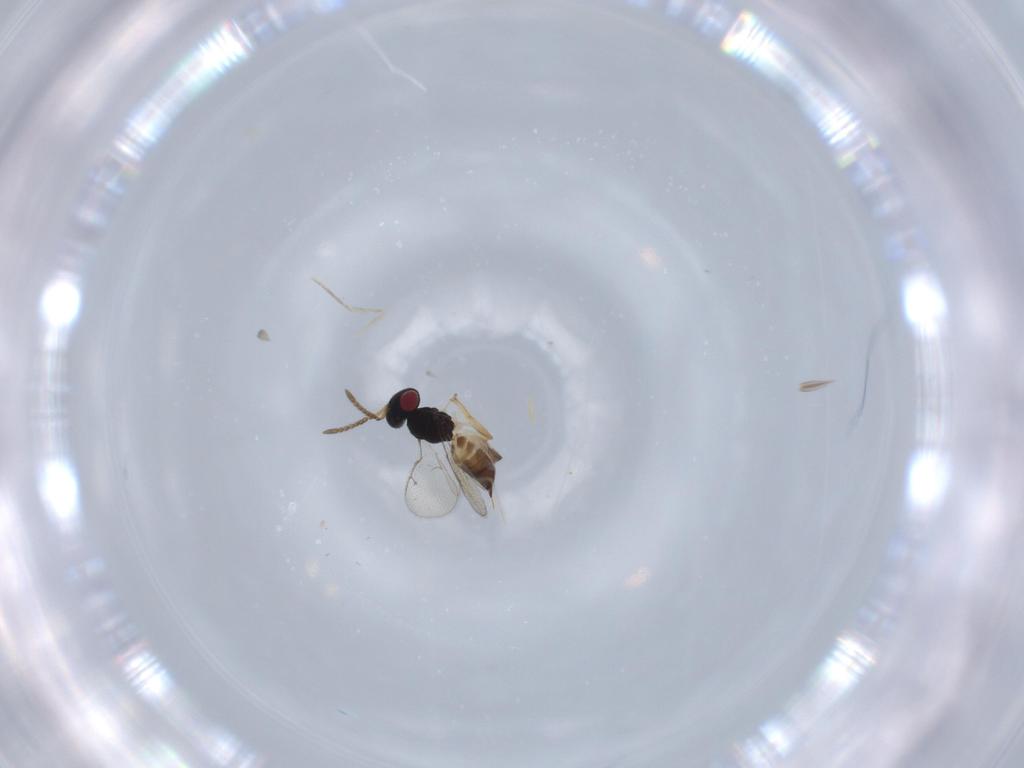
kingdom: Animalia
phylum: Arthropoda
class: Insecta
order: Hymenoptera
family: Pteromalidae
